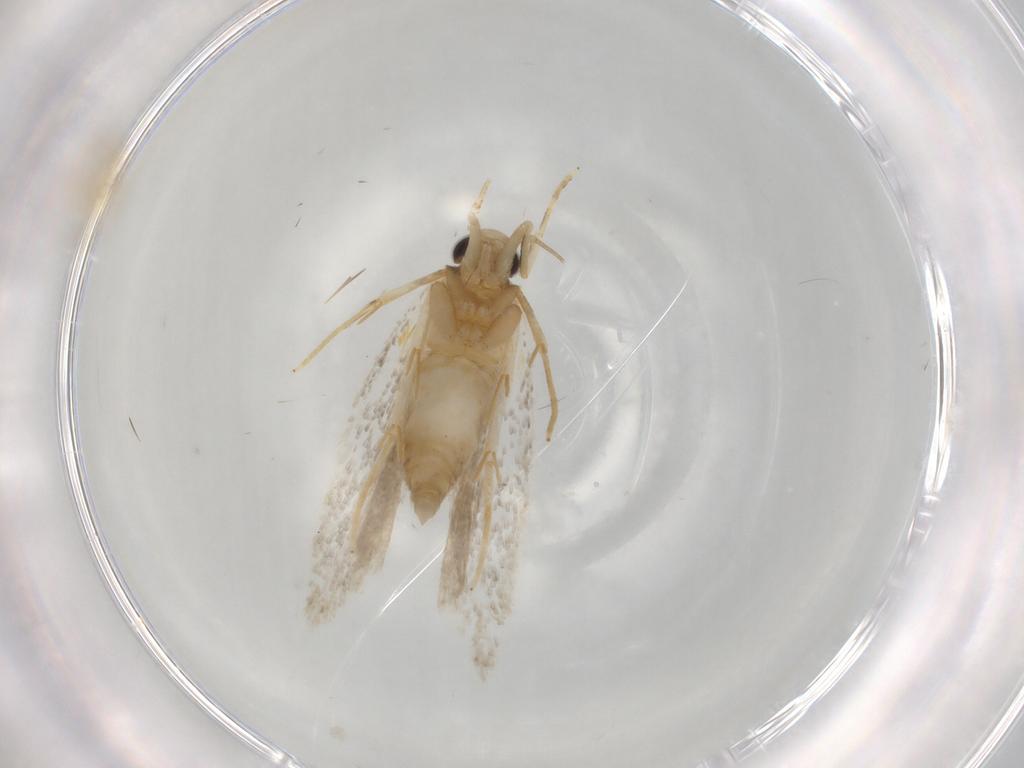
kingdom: Animalia
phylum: Arthropoda
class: Insecta
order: Lepidoptera
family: Autostichidae
